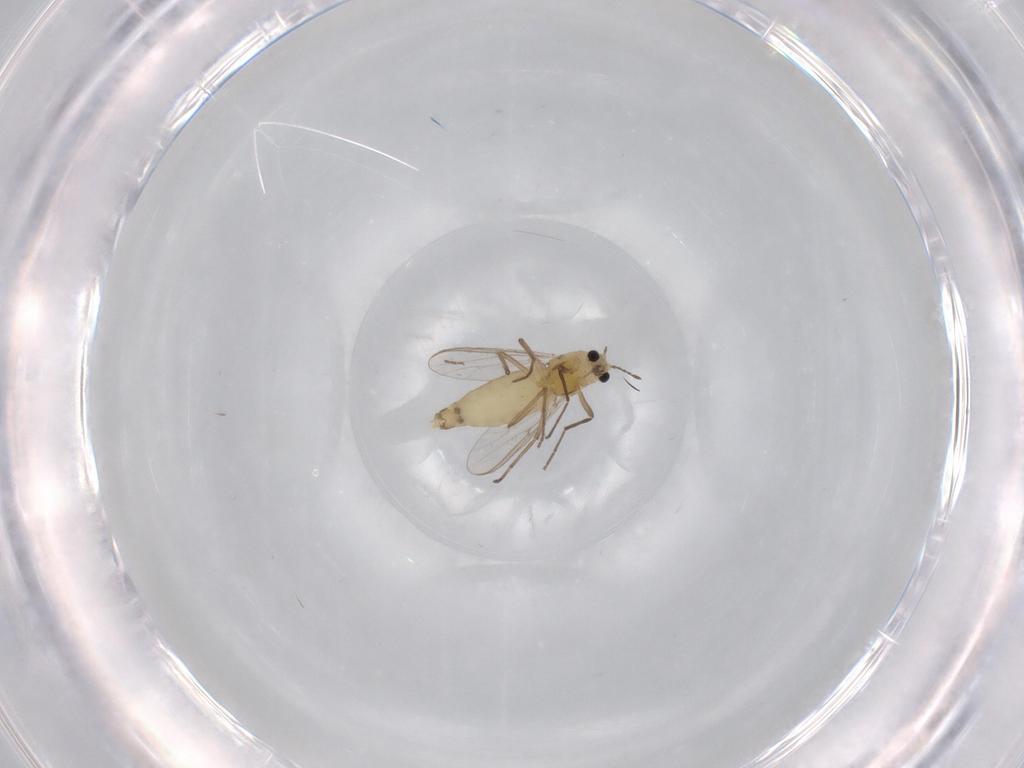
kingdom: Animalia
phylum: Arthropoda
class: Insecta
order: Diptera
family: Chironomidae
